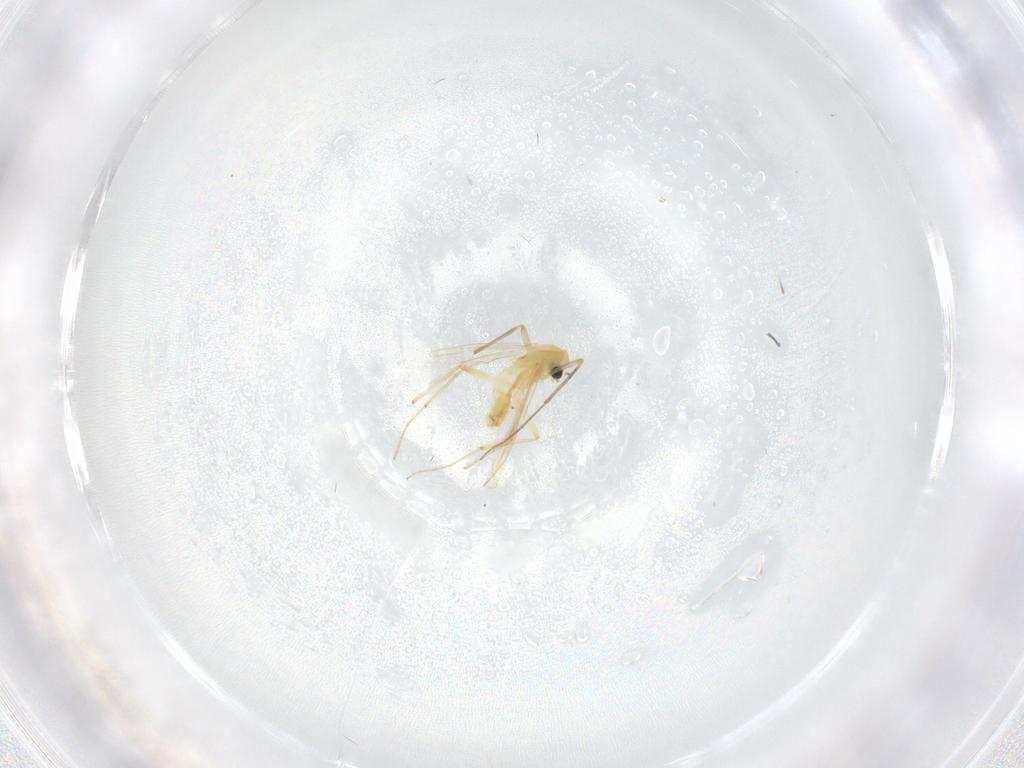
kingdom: Animalia
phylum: Arthropoda
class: Insecta
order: Diptera
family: Chironomidae
